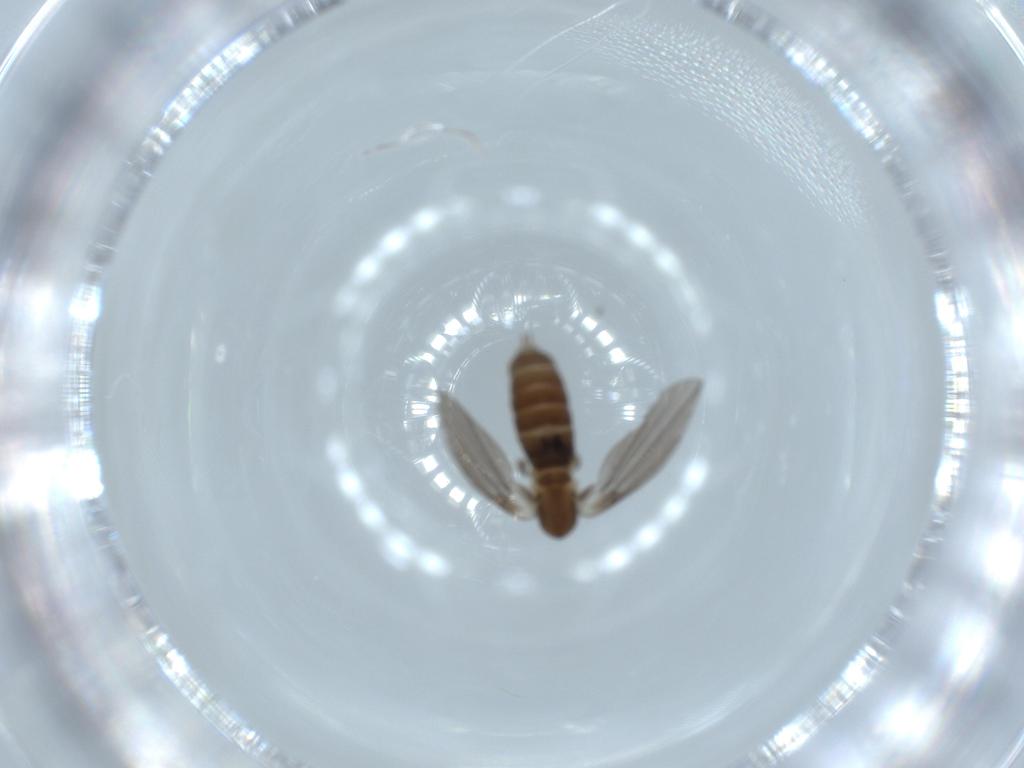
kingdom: Animalia
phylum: Arthropoda
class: Insecta
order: Diptera
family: Psychodidae
